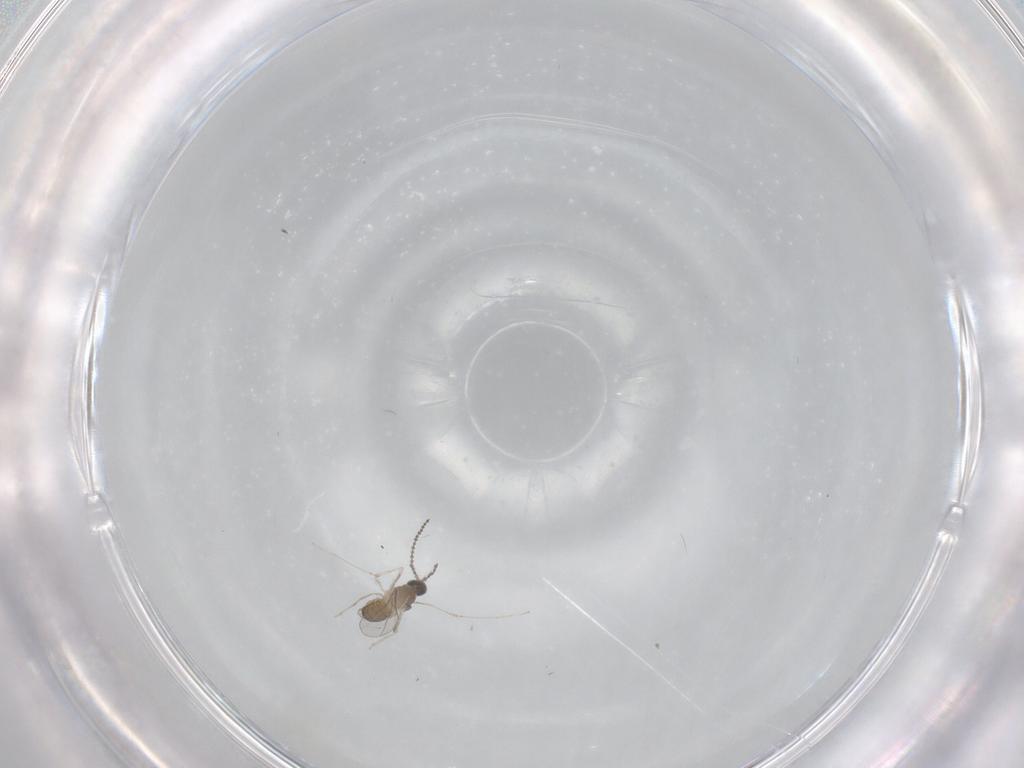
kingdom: Animalia
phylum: Arthropoda
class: Insecta
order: Diptera
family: Cecidomyiidae
